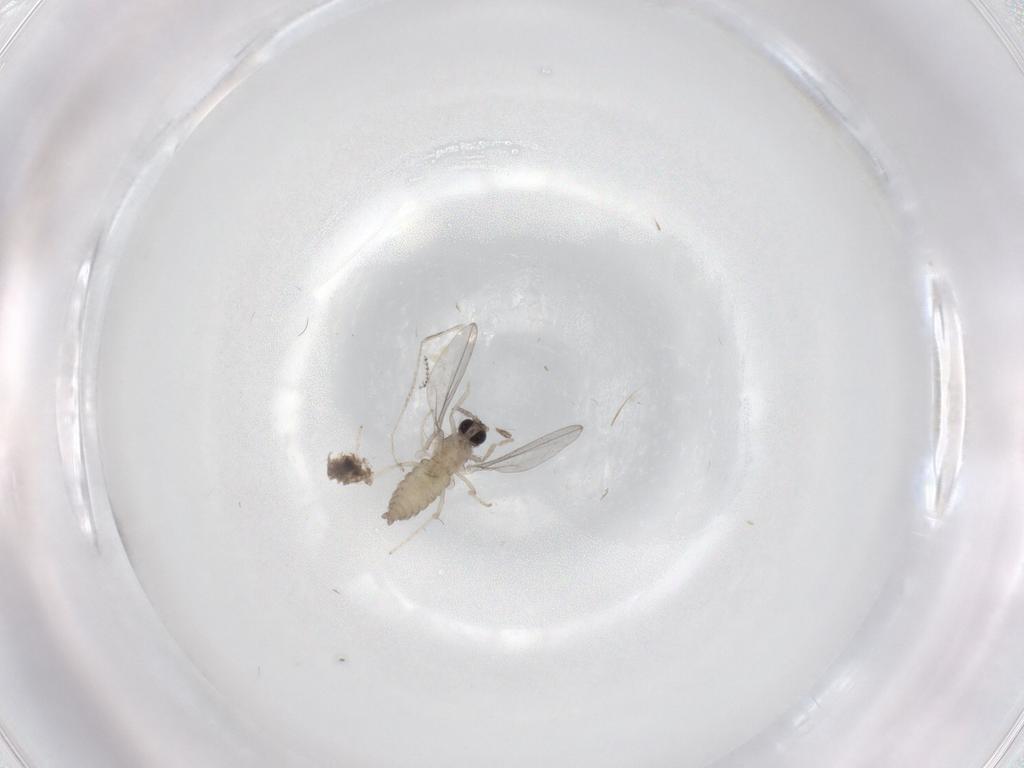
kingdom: Animalia
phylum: Arthropoda
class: Insecta
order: Diptera
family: Cecidomyiidae
